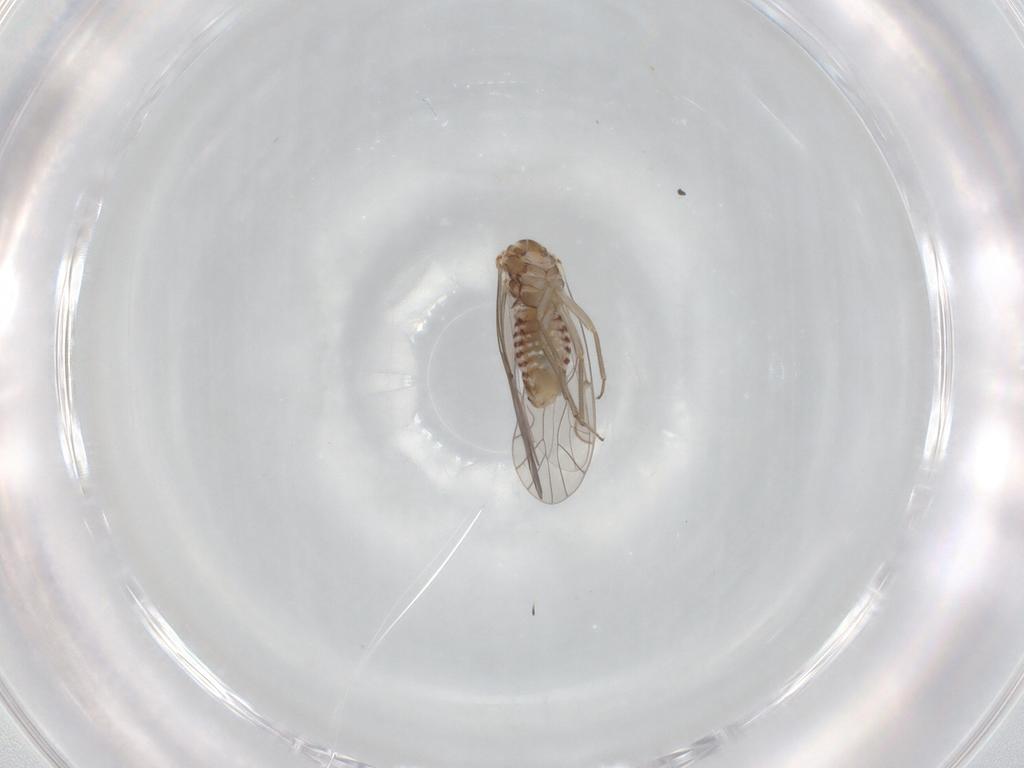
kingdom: Animalia
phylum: Arthropoda
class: Insecta
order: Psocodea
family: Lachesillidae
